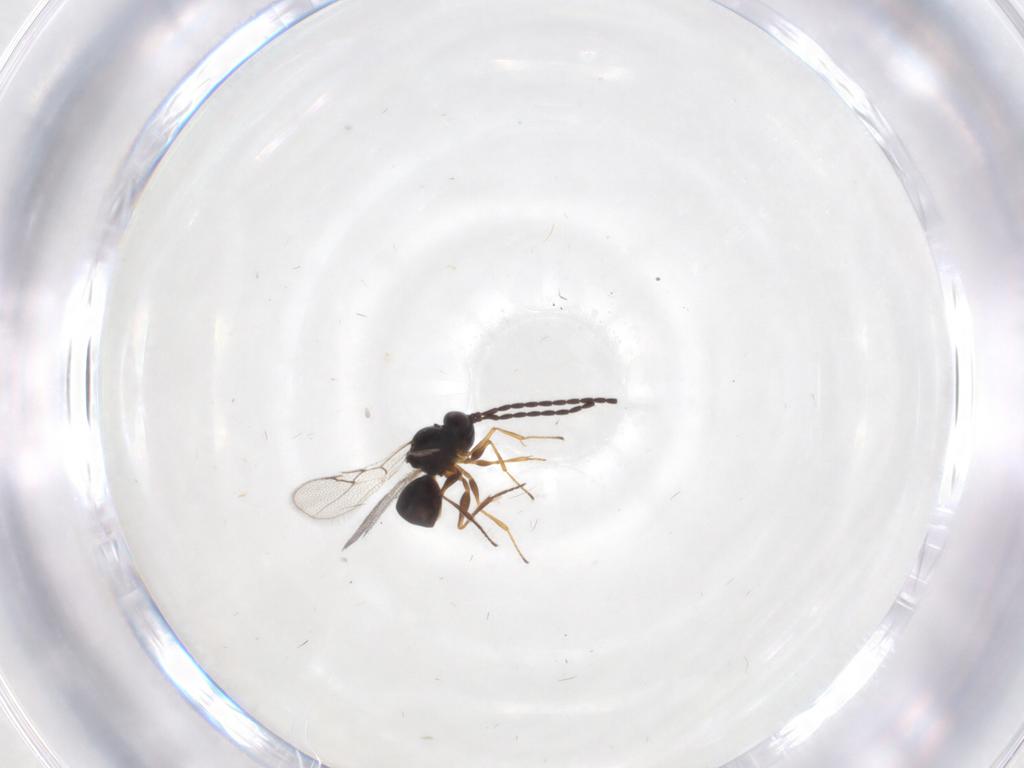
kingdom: Animalia
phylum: Arthropoda
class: Insecta
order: Hymenoptera
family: Figitidae
